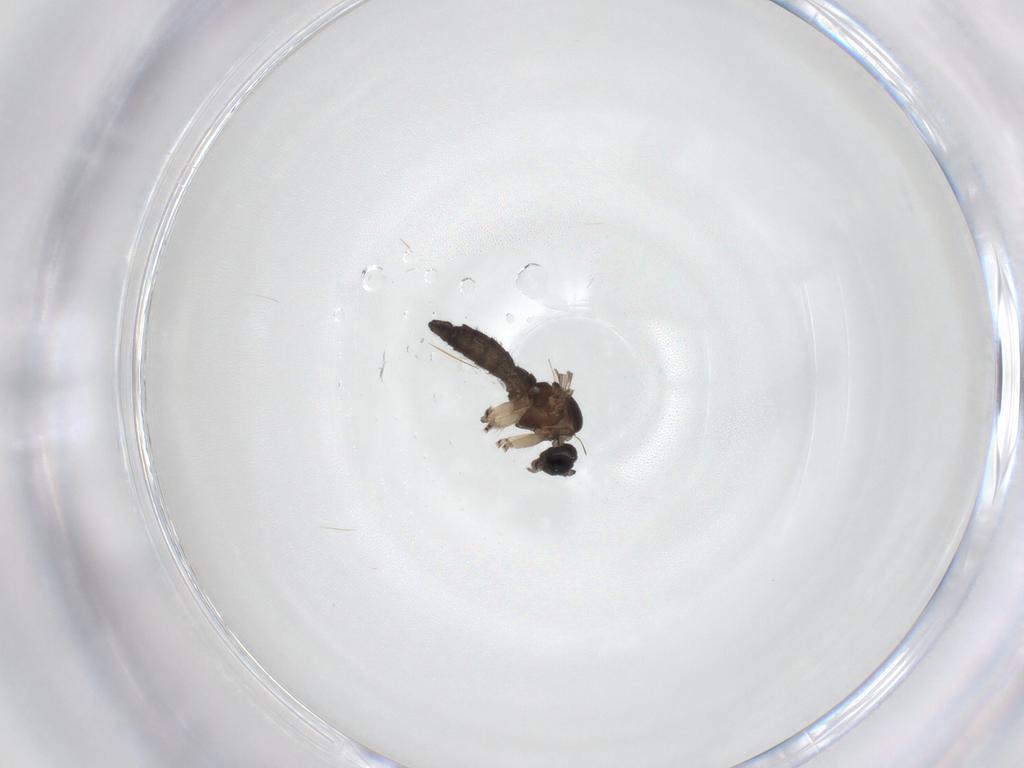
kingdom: Animalia
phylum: Arthropoda
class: Insecta
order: Diptera
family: Sciaridae
